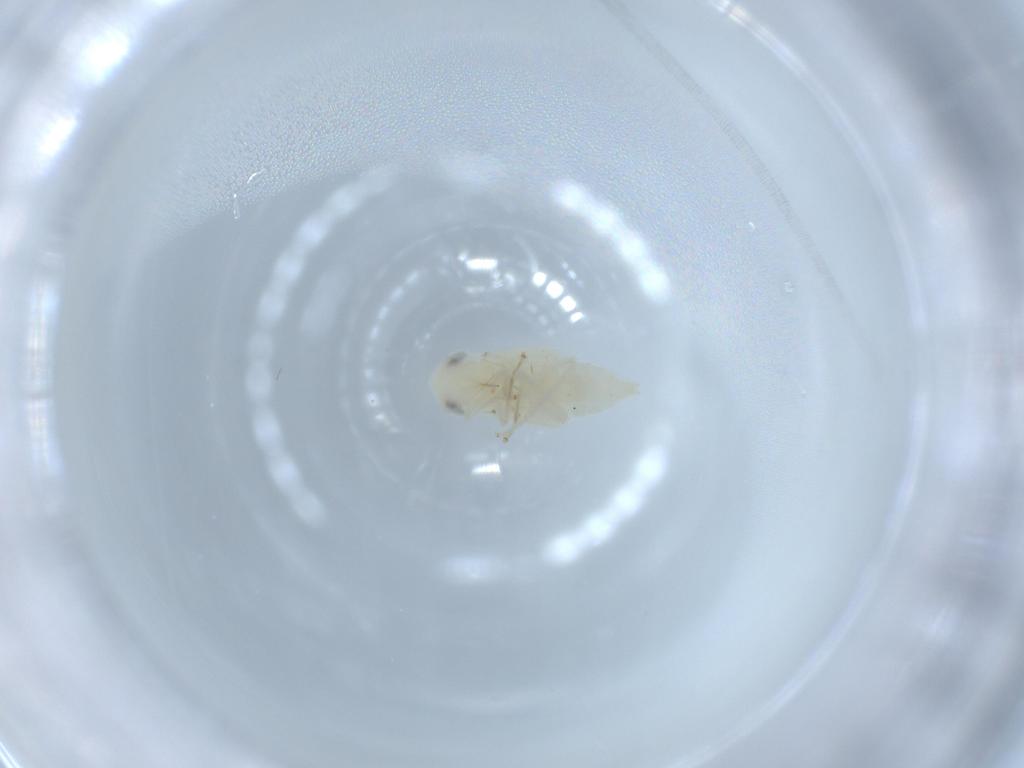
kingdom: Animalia
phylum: Arthropoda
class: Insecta
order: Hemiptera
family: Cicadellidae
